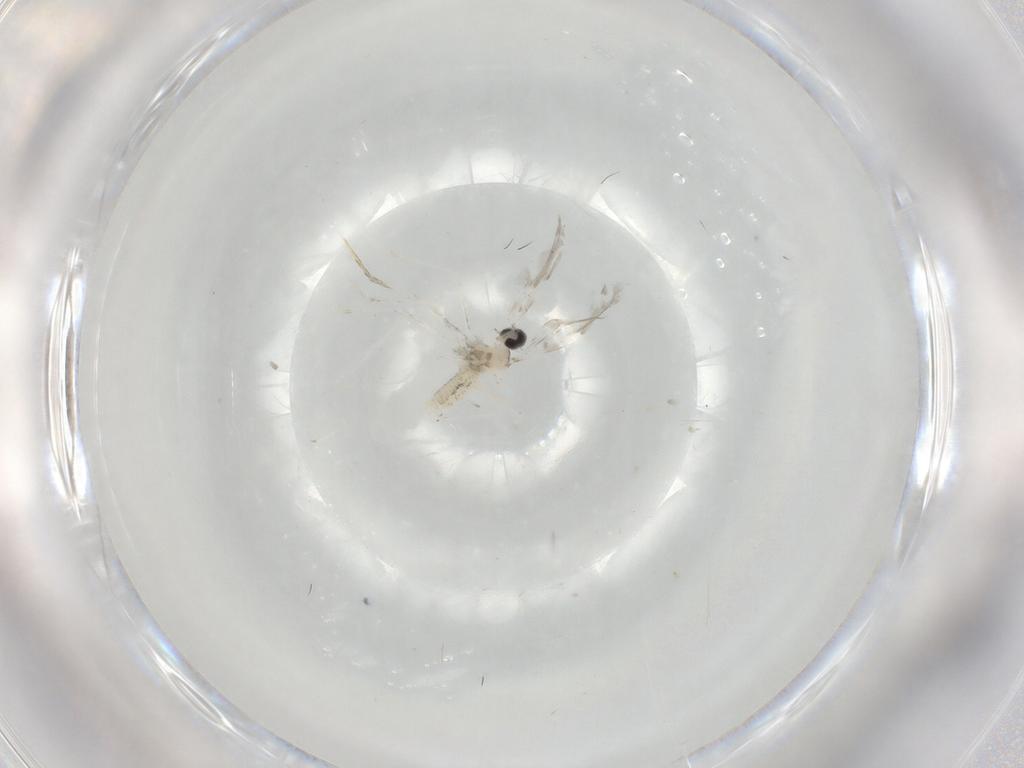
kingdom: Animalia
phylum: Arthropoda
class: Insecta
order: Diptera
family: Cecidomyiidae
